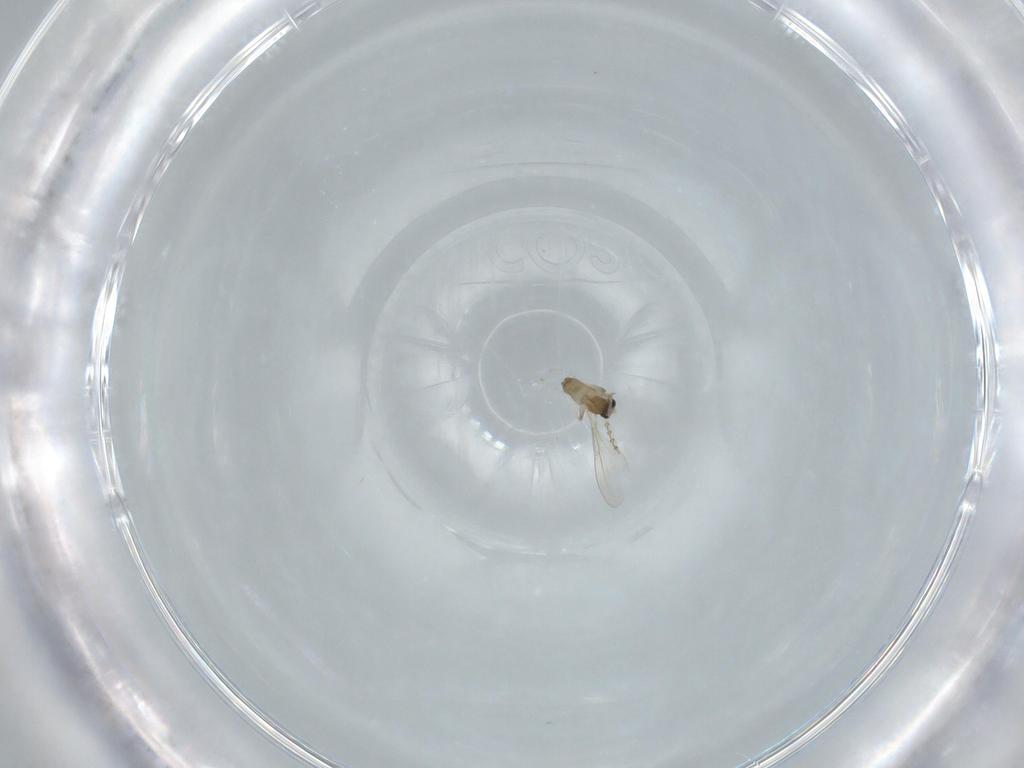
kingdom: Animalia
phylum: Arthropoda
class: Insecta
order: Diptera
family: Cecidomyiidae
